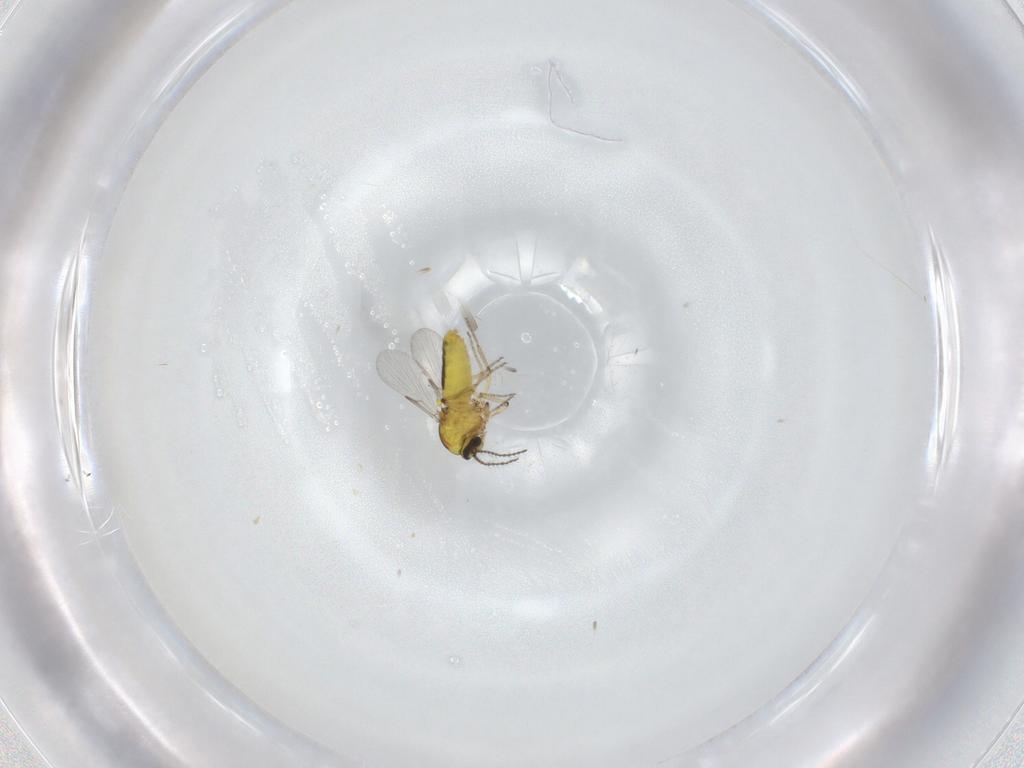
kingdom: Animalia
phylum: Arthropoda
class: Insecta
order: Diptera
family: Ceratopogonidae
